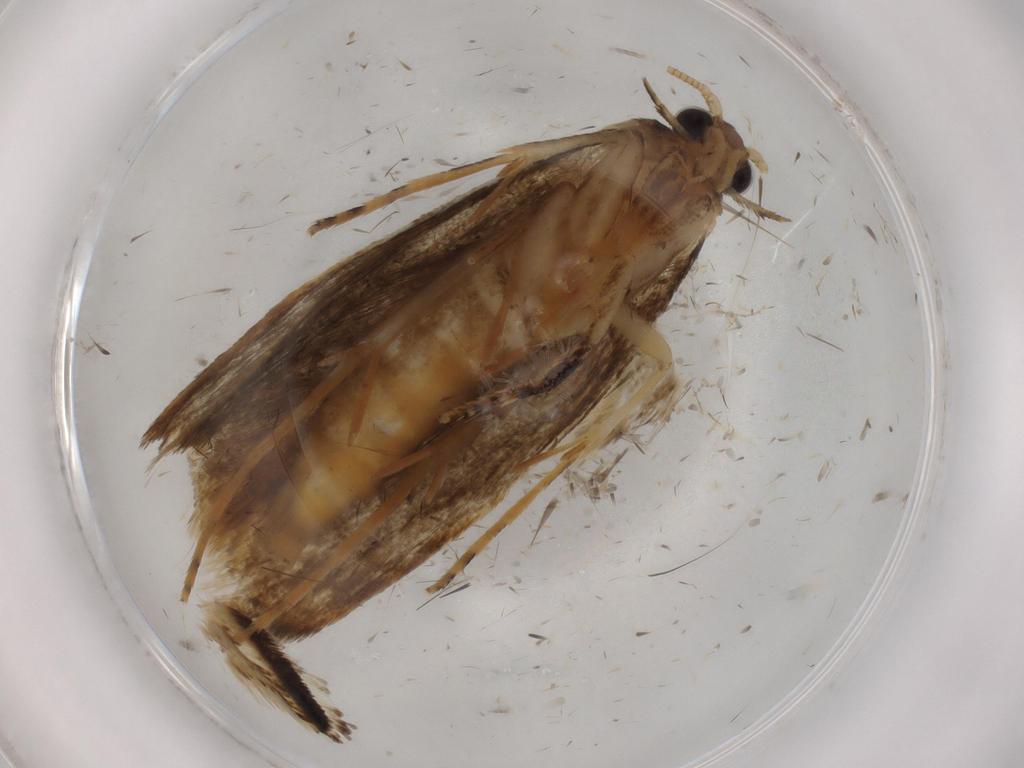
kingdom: Animalia
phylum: Arthropoda
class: Insecta
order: Lepidoptera
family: Tineidae
